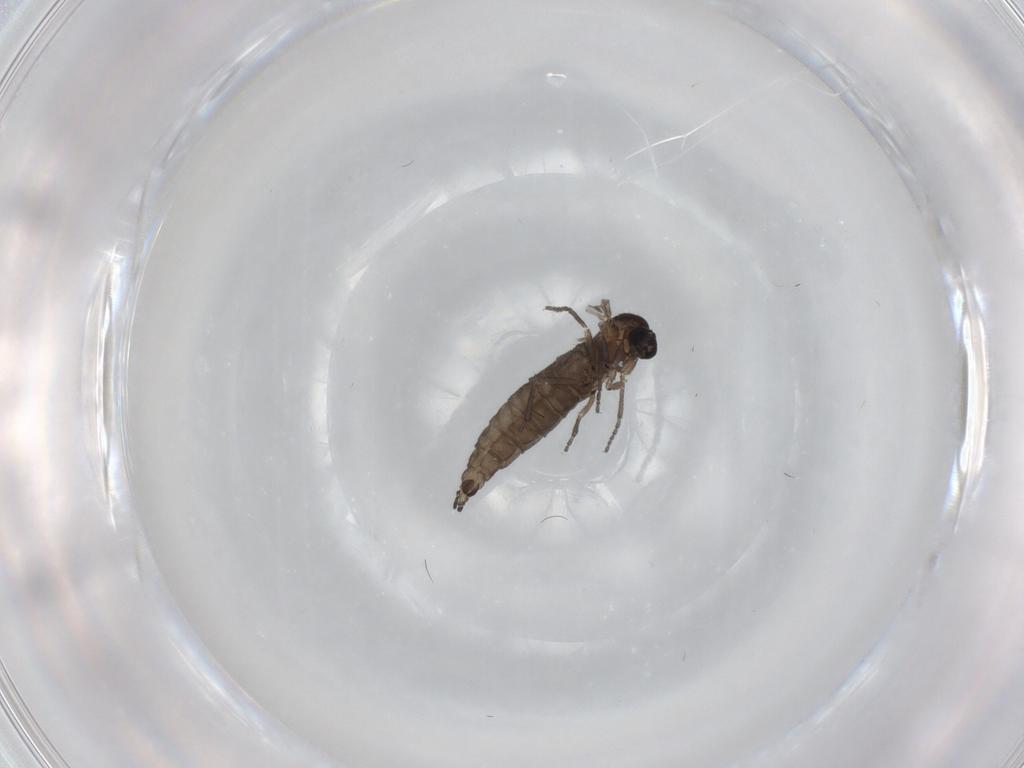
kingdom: Animalia
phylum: Arthropoda
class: Insecta
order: Diptera
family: Sciaridae
